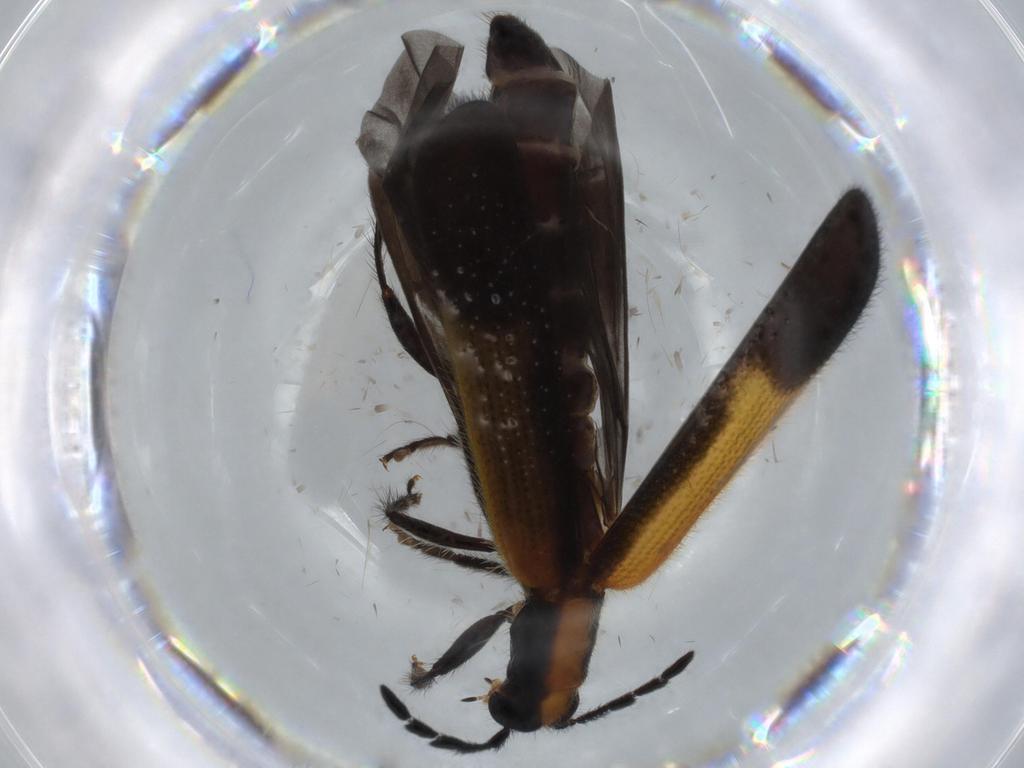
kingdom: Animalia
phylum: Arthropoda
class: Insecta
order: Coleoptera
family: Cleridae
